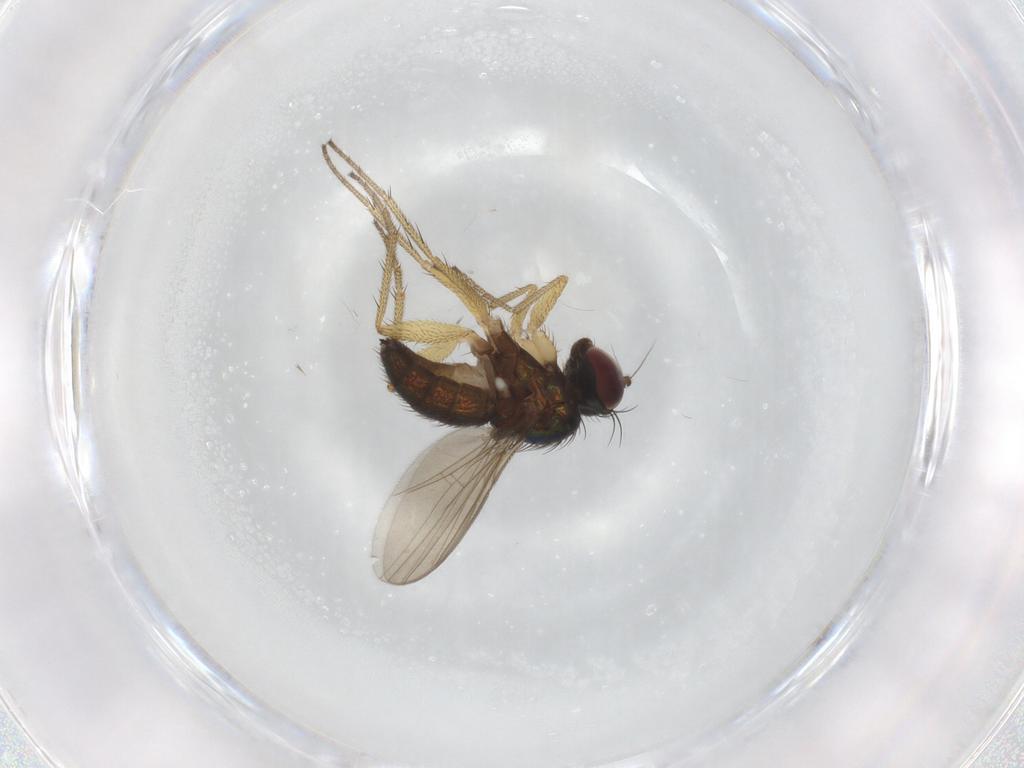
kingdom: Animalia
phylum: Arthropoda
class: Insecta
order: Diptera
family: Dolichopodidae
